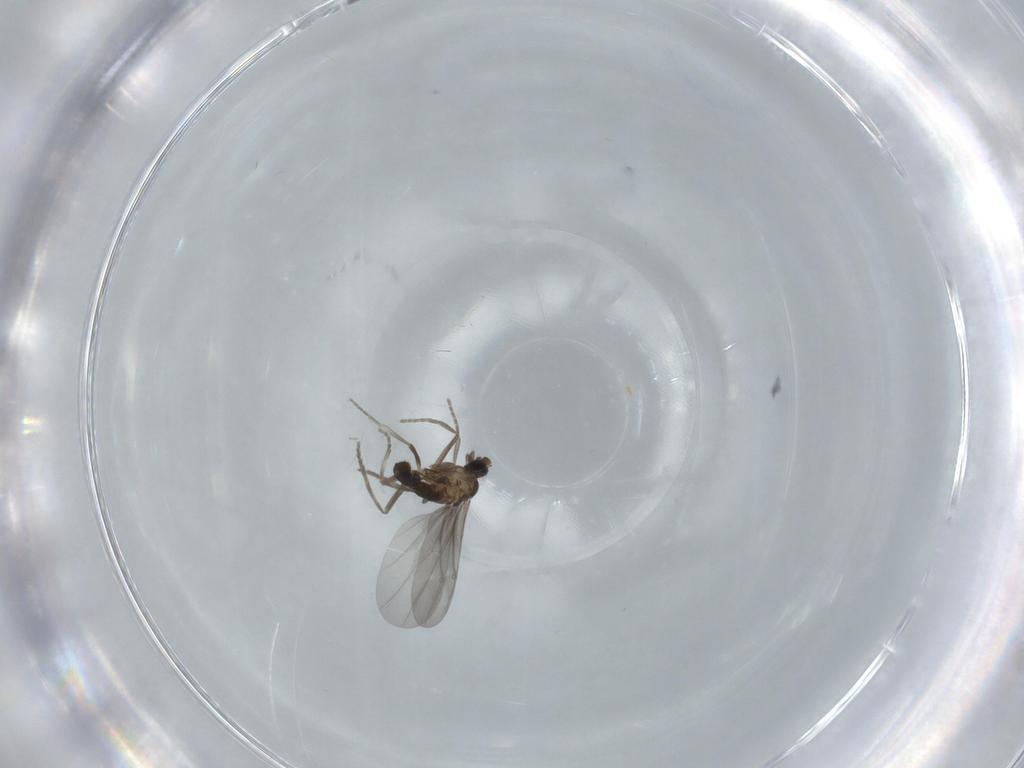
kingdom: Animalia
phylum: Arthropoda
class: Insecta
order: Diptera
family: Phoridae
